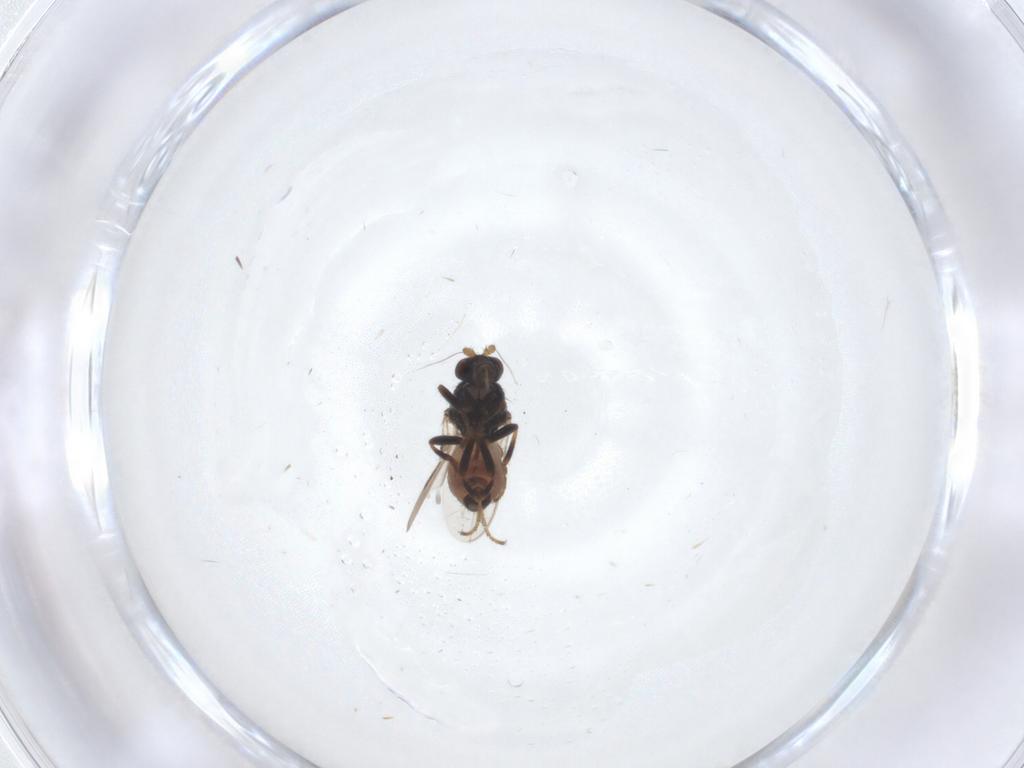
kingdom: Animalia
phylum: Arthropoda
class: Insecta
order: Diptera
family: Sphaeroceridae
